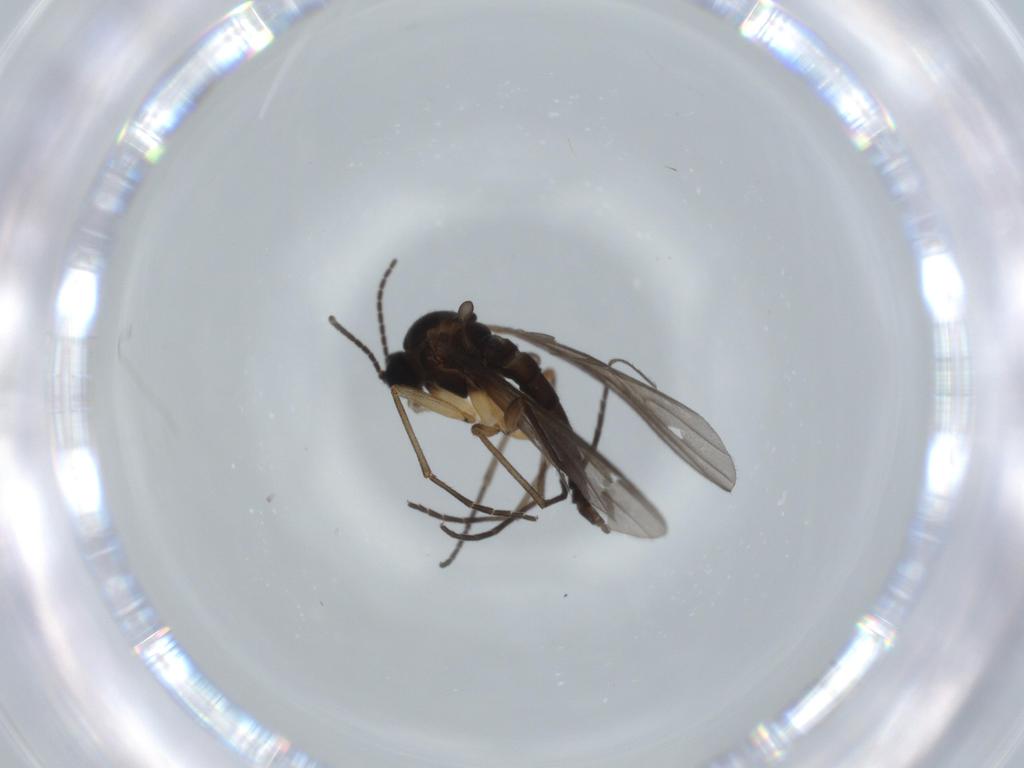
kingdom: Animalia
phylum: Arthropoda
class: Insecta
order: Diptera
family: Sciaridae
